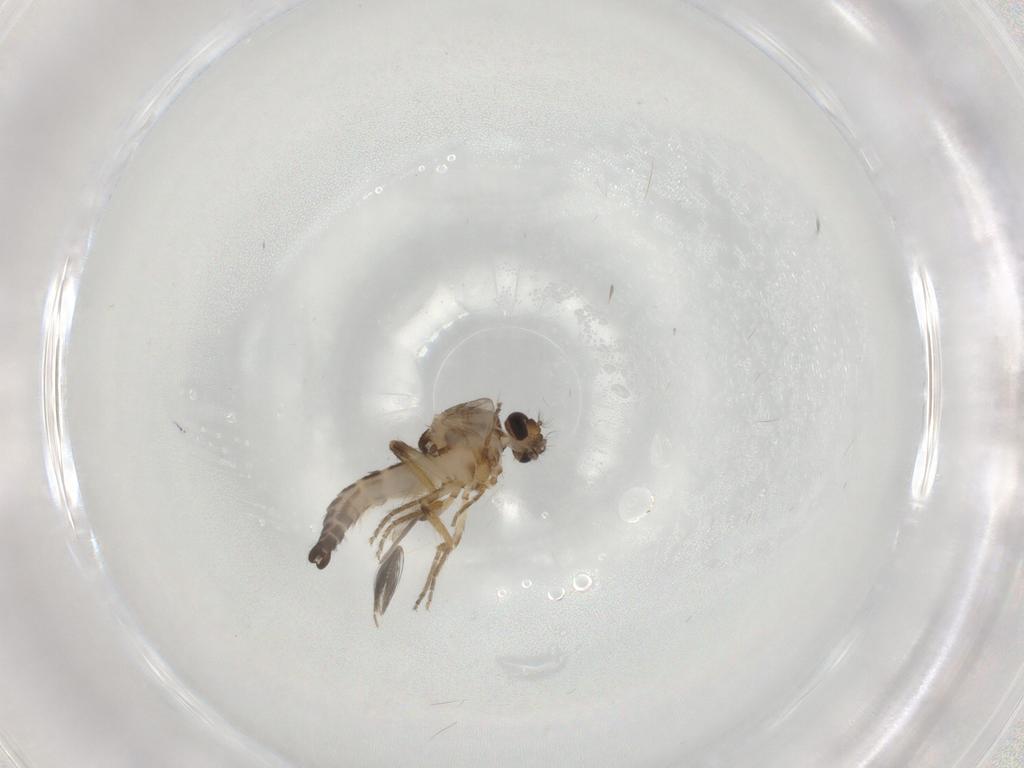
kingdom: Animalia
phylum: Arthropoda
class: Insecta
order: Diptera
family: Ceratopogonidae
